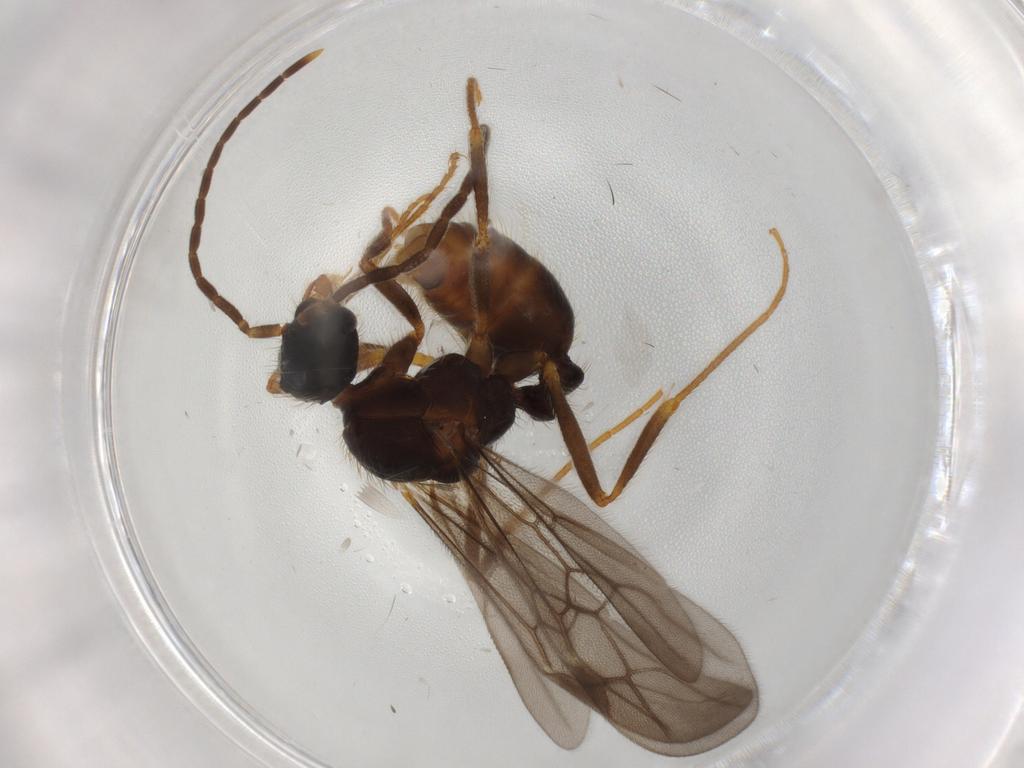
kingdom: Animalia
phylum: Arthropoda
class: Insecta
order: Hymenoptera
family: Formicidae
